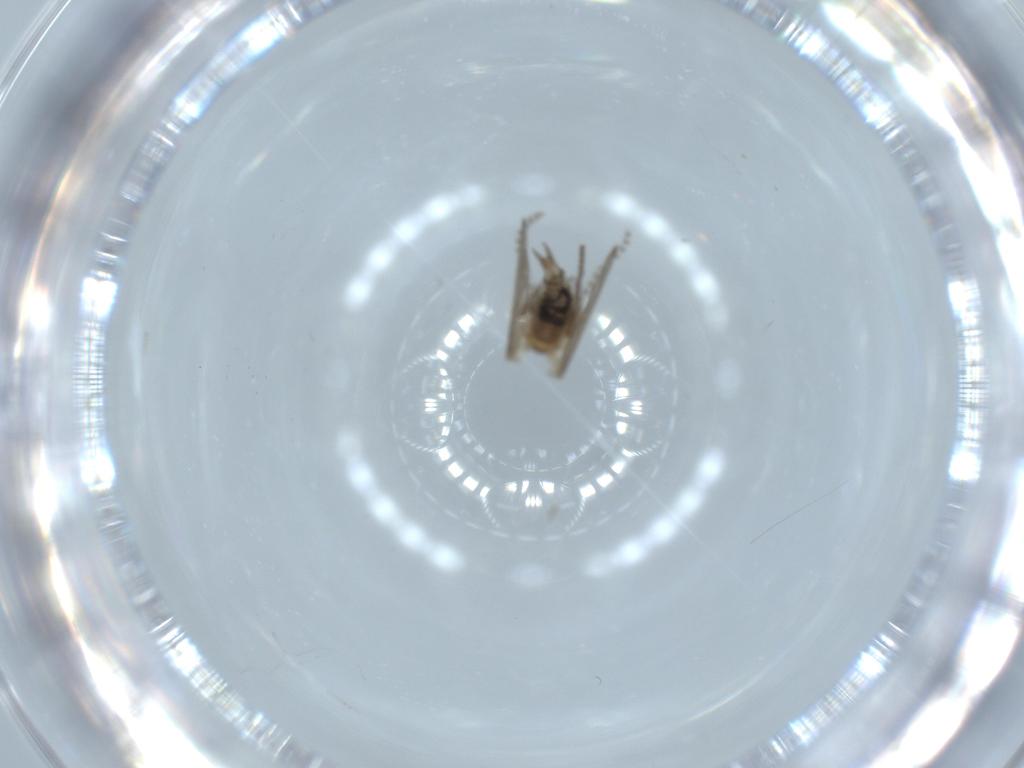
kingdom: Animalia
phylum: Arthropoda
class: Insecta
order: Diptera
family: Psychodidae
